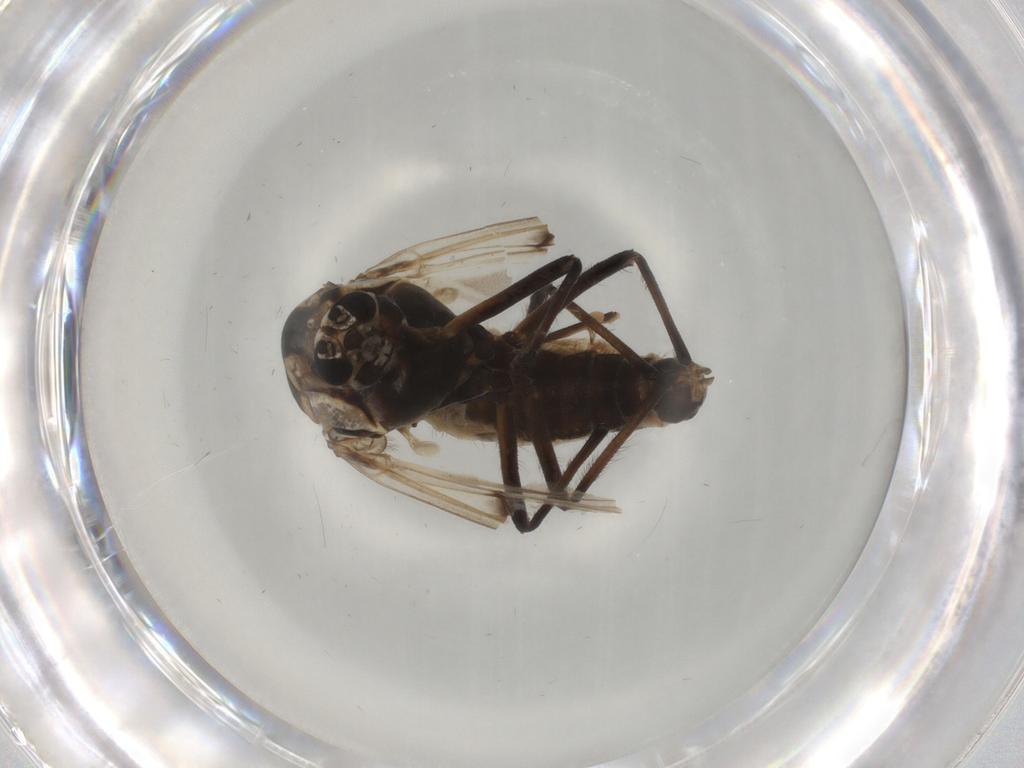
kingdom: Animalia
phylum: Arthropoda
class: Insecta
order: Diptera
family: Chironomidae
